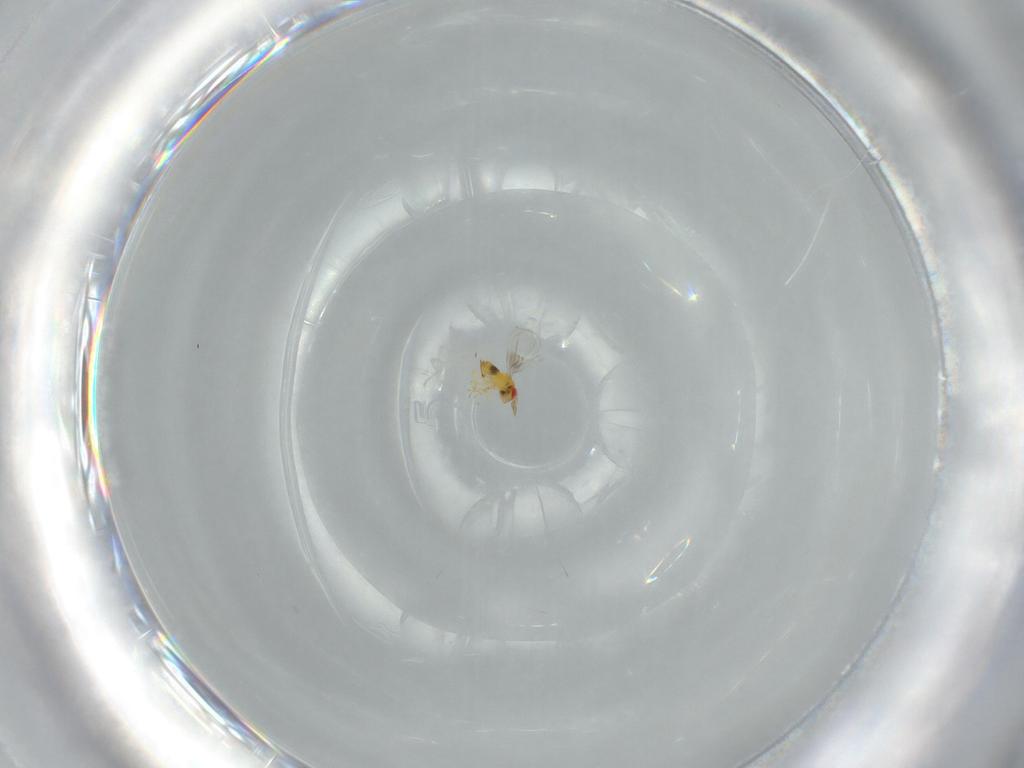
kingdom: Animalia
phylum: Arthropoda
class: Insecta
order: Hymenoptera
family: Trichogrammatidae
